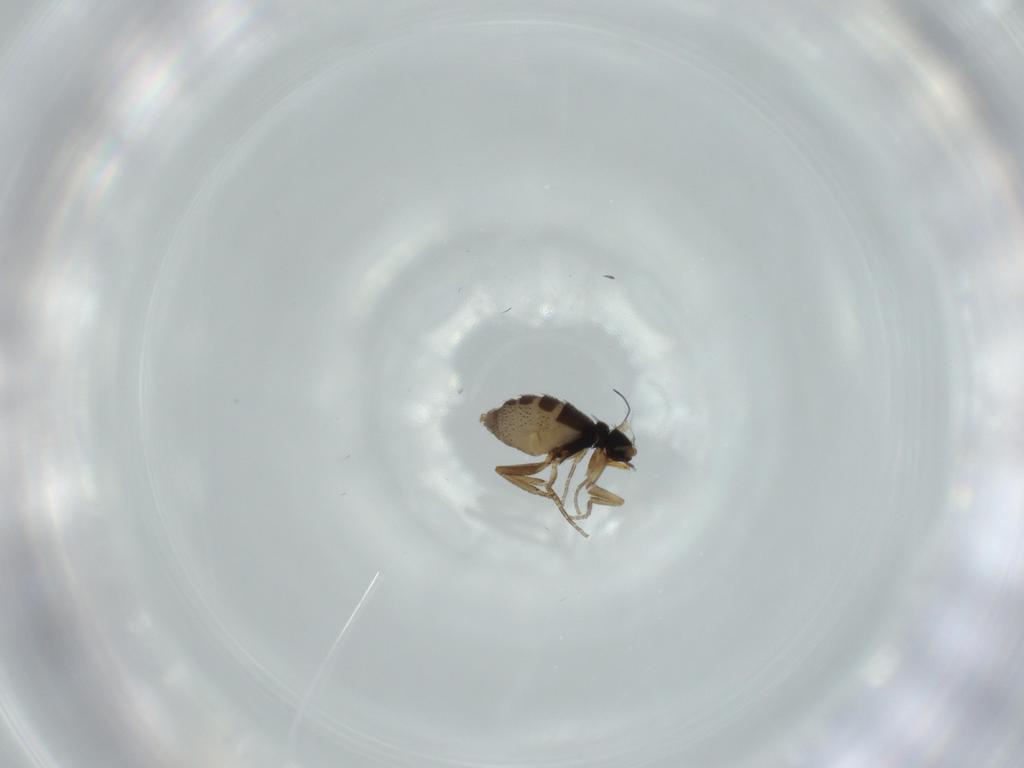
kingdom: Animalia
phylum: Arthropoda
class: Insecta
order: Diptera
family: Phoridae
